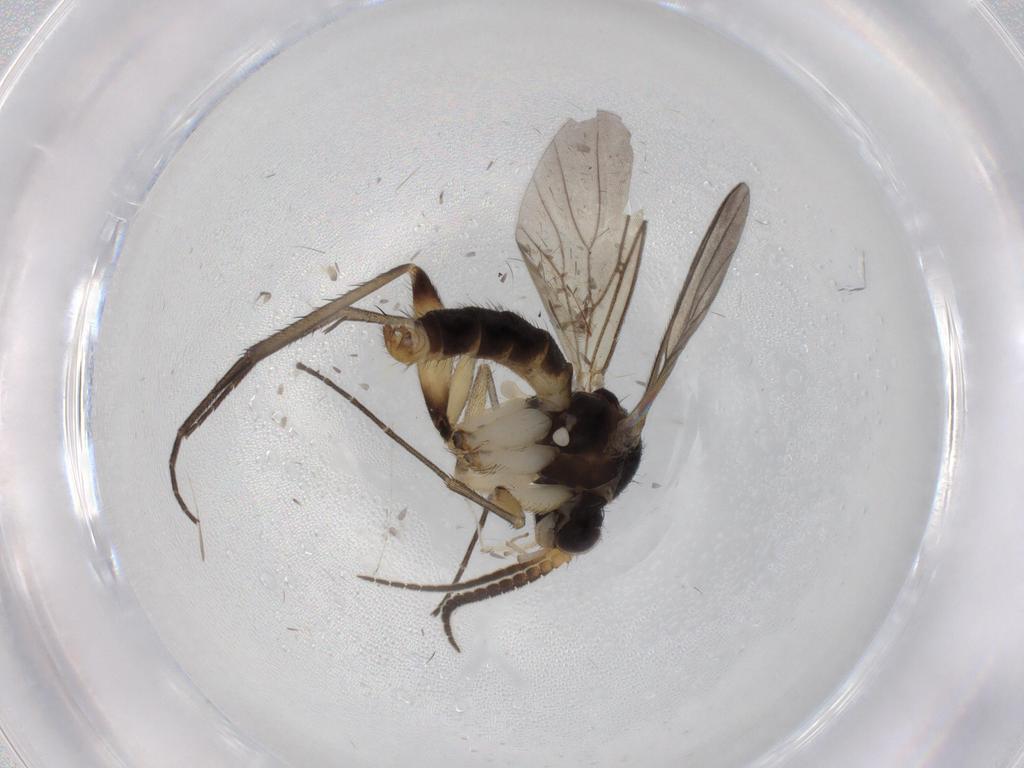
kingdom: Animalia
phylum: Arthropoda
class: Insecta
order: Diptera
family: Mycetophilidae
